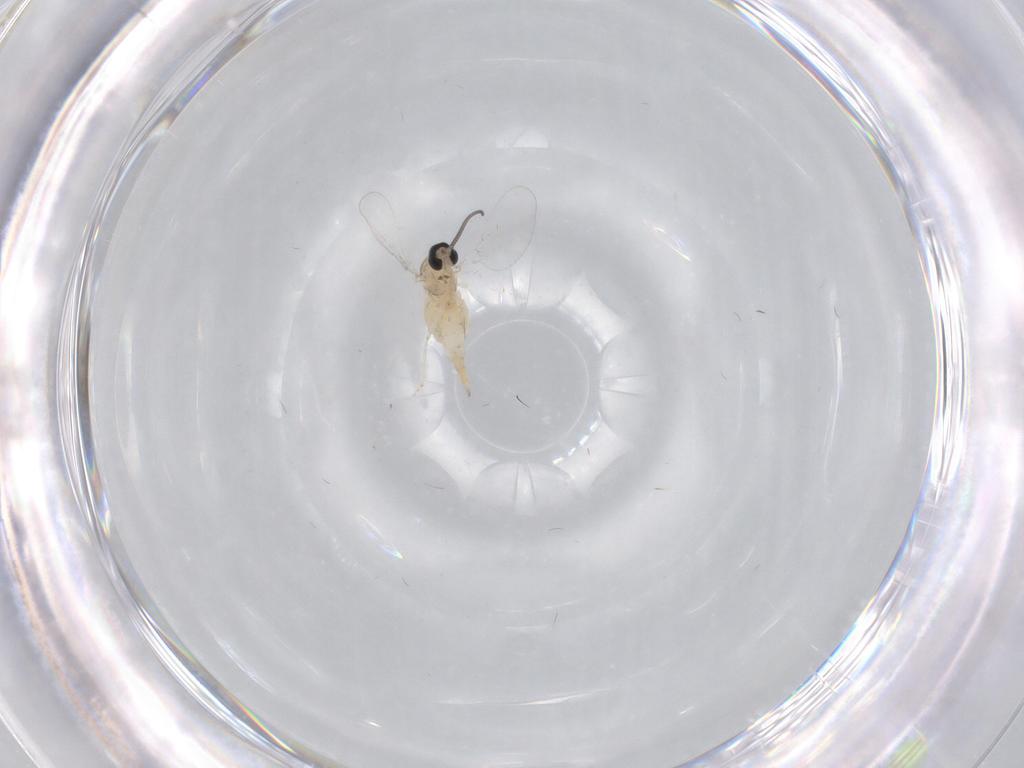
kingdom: Animalia
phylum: Arthropoda
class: Insecta
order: Diptera
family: Cecidomyiidae
